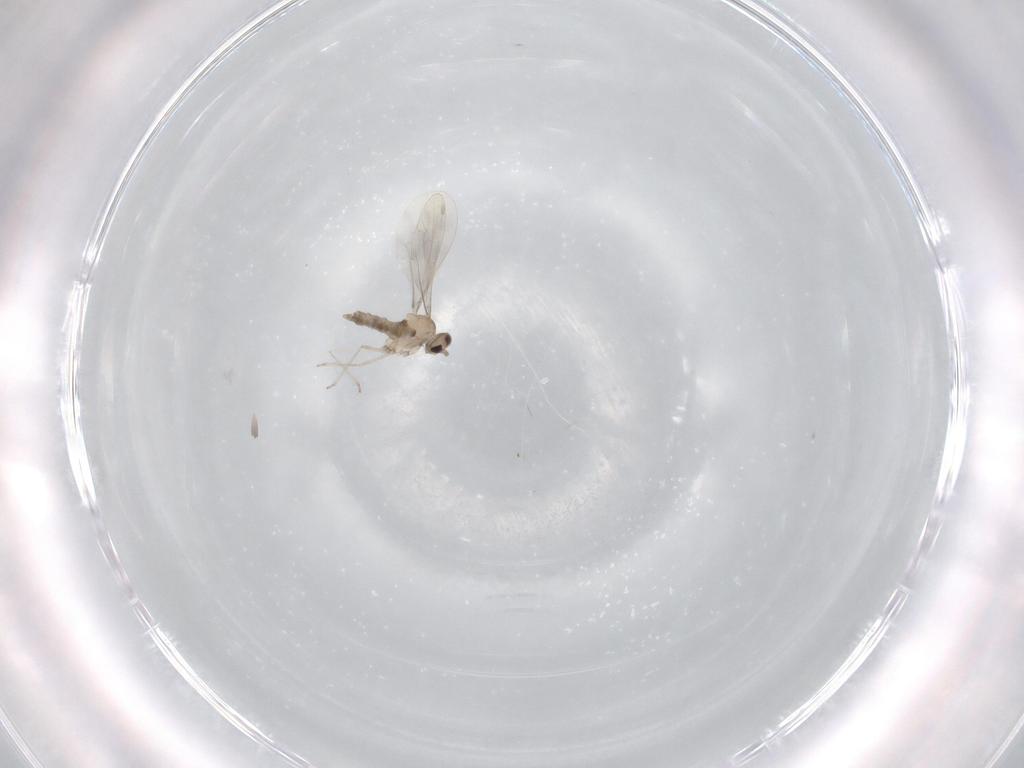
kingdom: Animalia
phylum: Arthropoda
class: Insecta
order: Diptera
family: Cecidomyiidae
